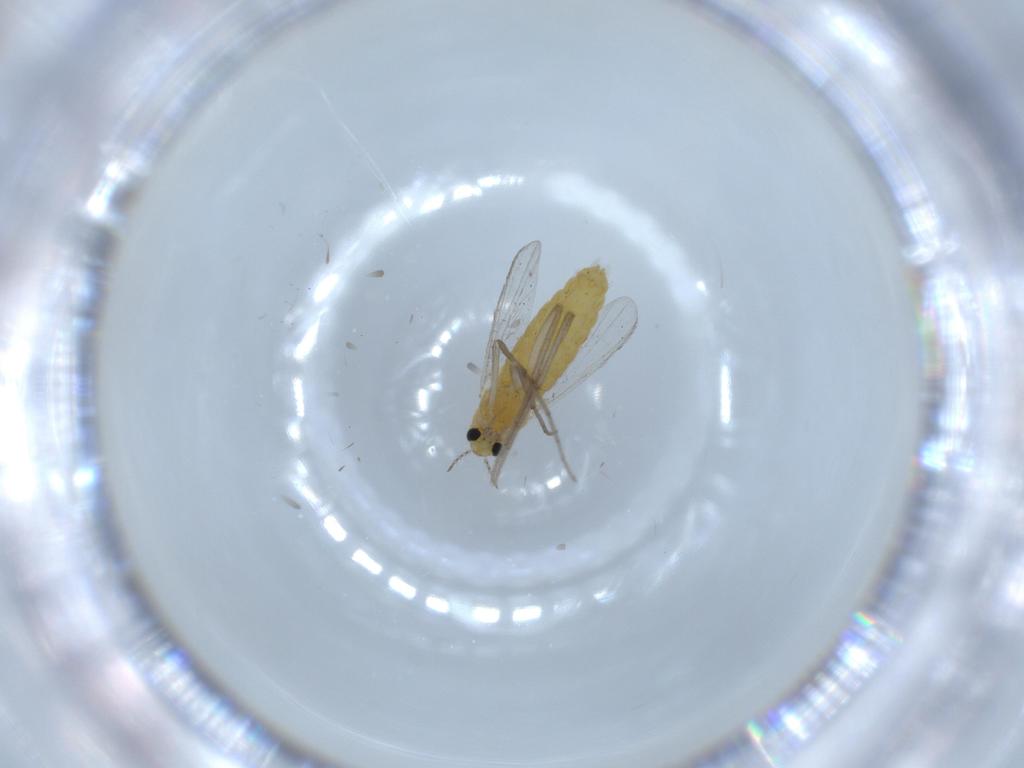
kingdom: Animalia
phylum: Arthropoda
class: Insecta
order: Diptera
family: Chironomidae
